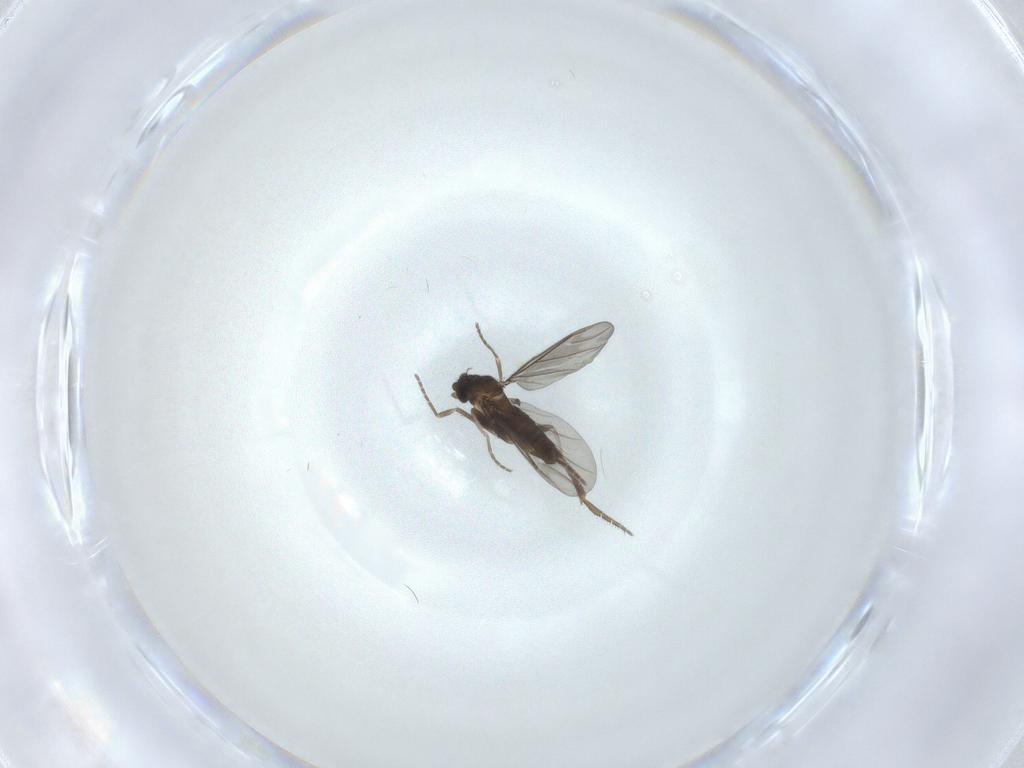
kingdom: Animalia
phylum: Arthropoda
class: Insecta
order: Diptera
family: Phoridae
